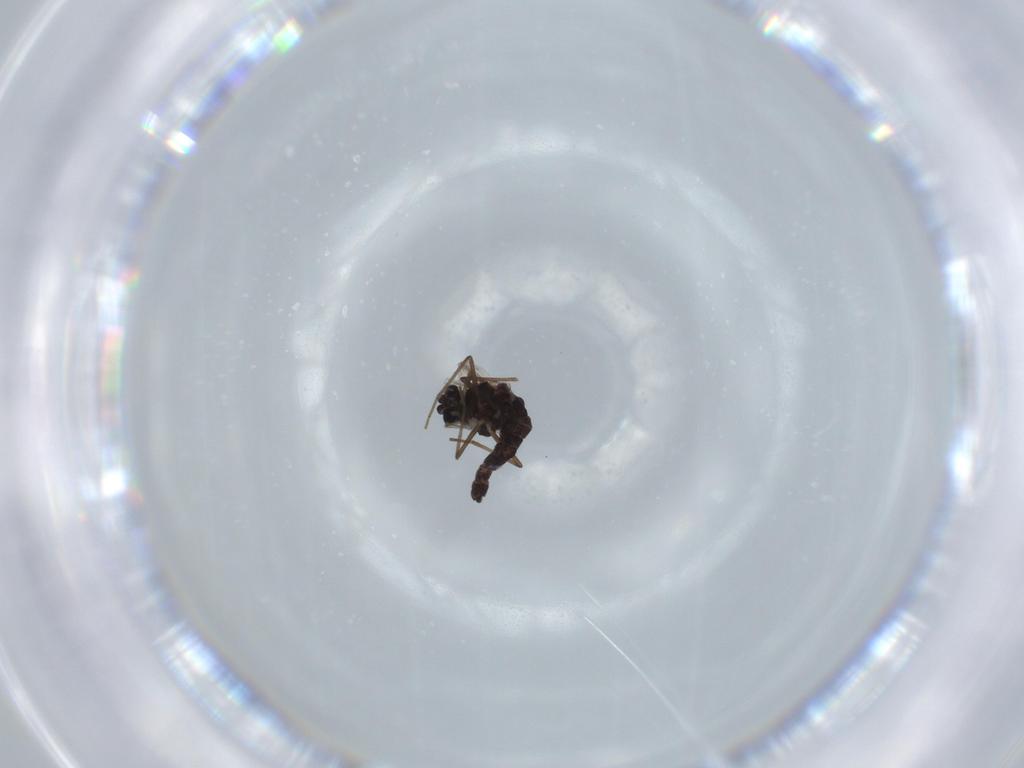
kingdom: Animalia
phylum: Arthropoda
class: Insecta
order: Diptera
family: Chironomidae
